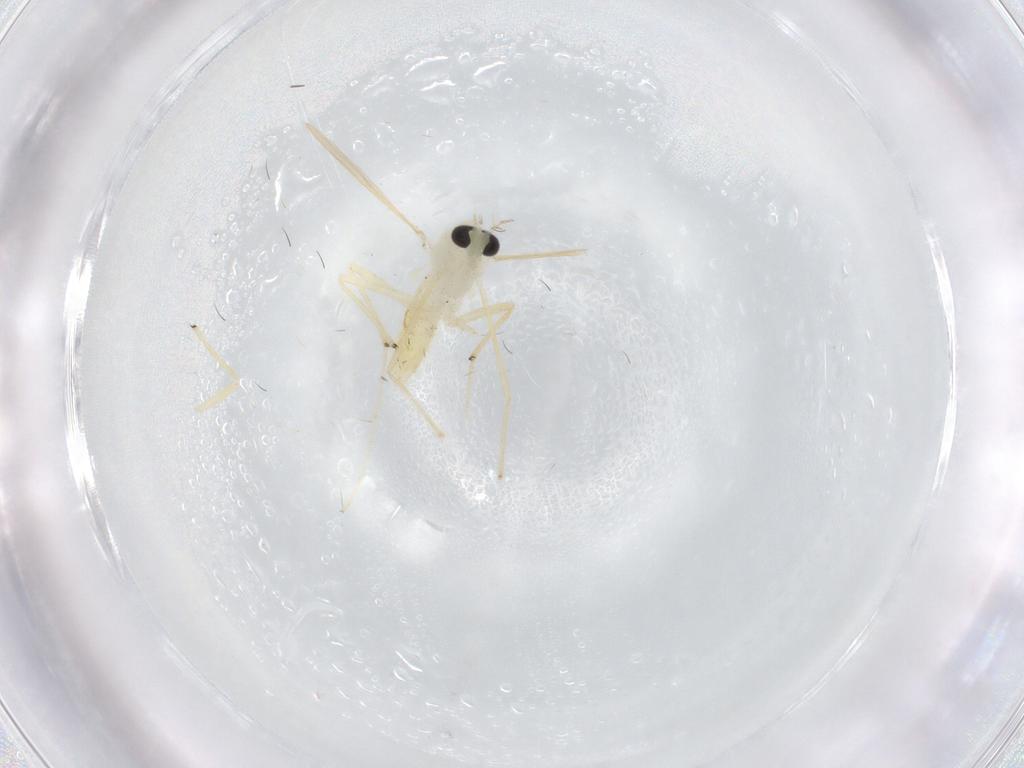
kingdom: Animalia
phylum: Arthropoda
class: Insecta
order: Diptera
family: Chironomidae
